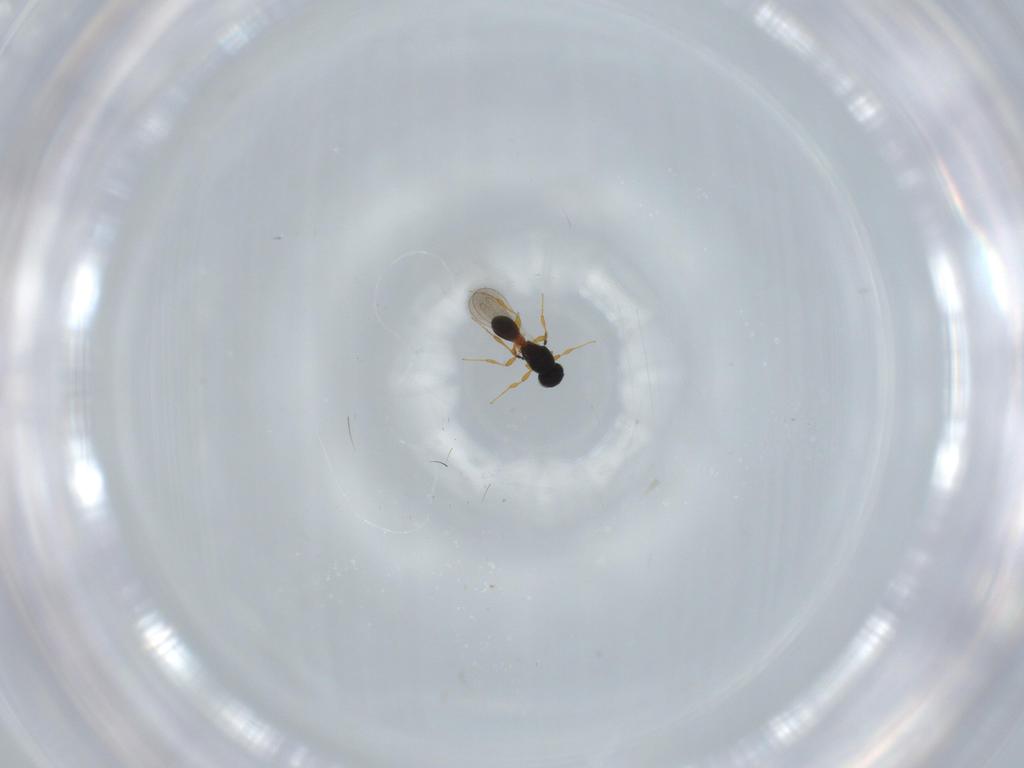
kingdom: Animalia
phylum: Arthropoda
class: Insecta
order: Hymenoptera
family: Platygastridae
